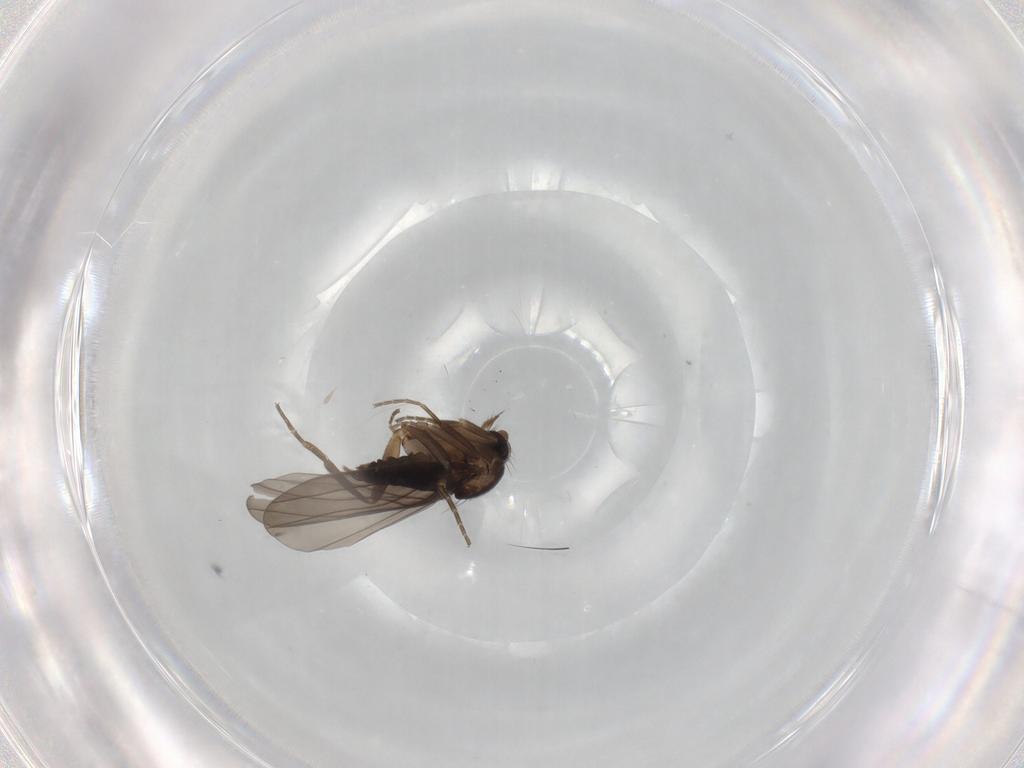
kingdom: Animalia
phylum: Arthropoda
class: Insecta
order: Diptera
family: Phoridae
